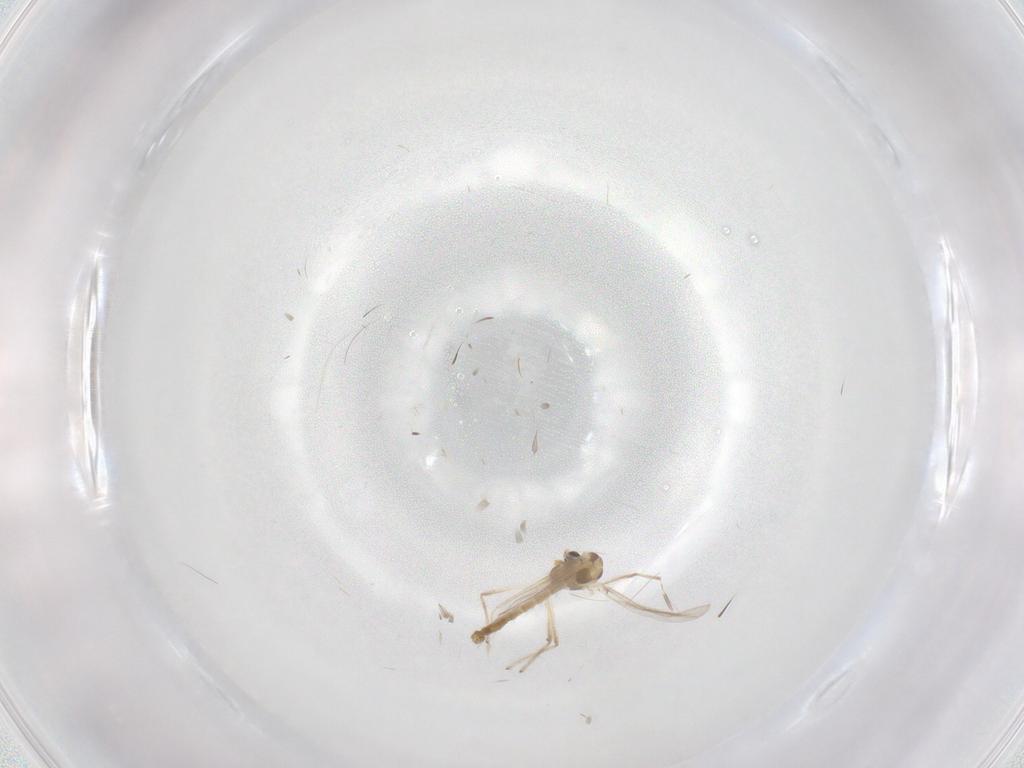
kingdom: Animalia
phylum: Arthropoda
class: Insecta
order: Diptera
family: Chironomidae
